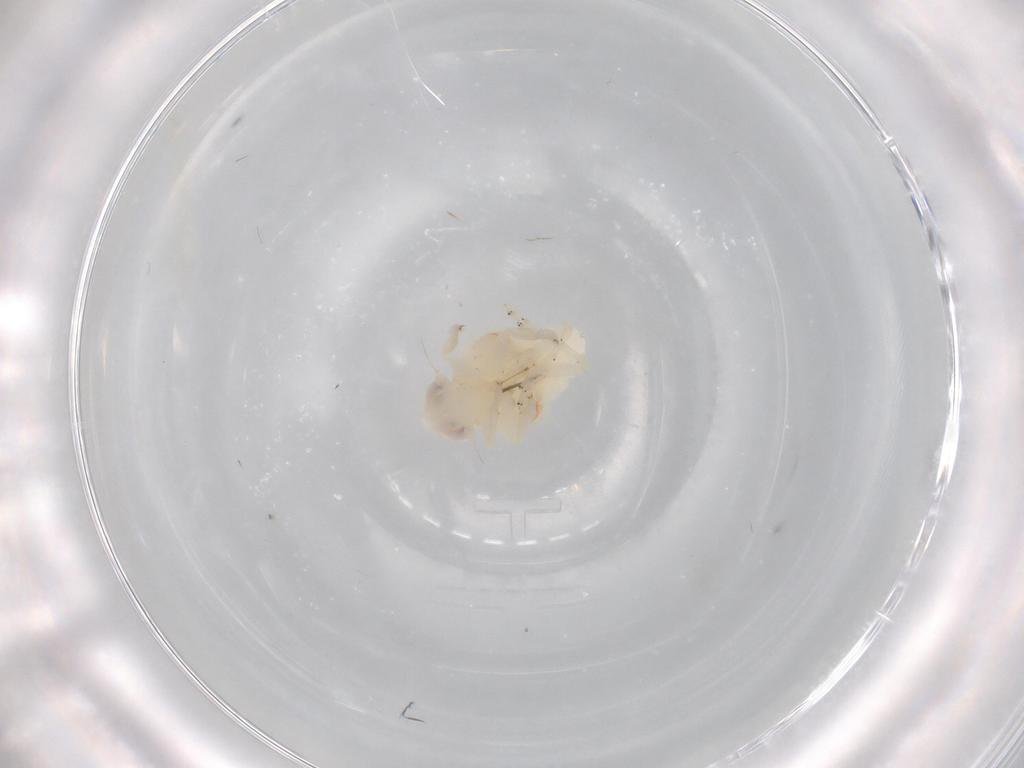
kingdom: Animalia
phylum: Arthropoda
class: Insecta
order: Hemiptera
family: Nogodinidae
